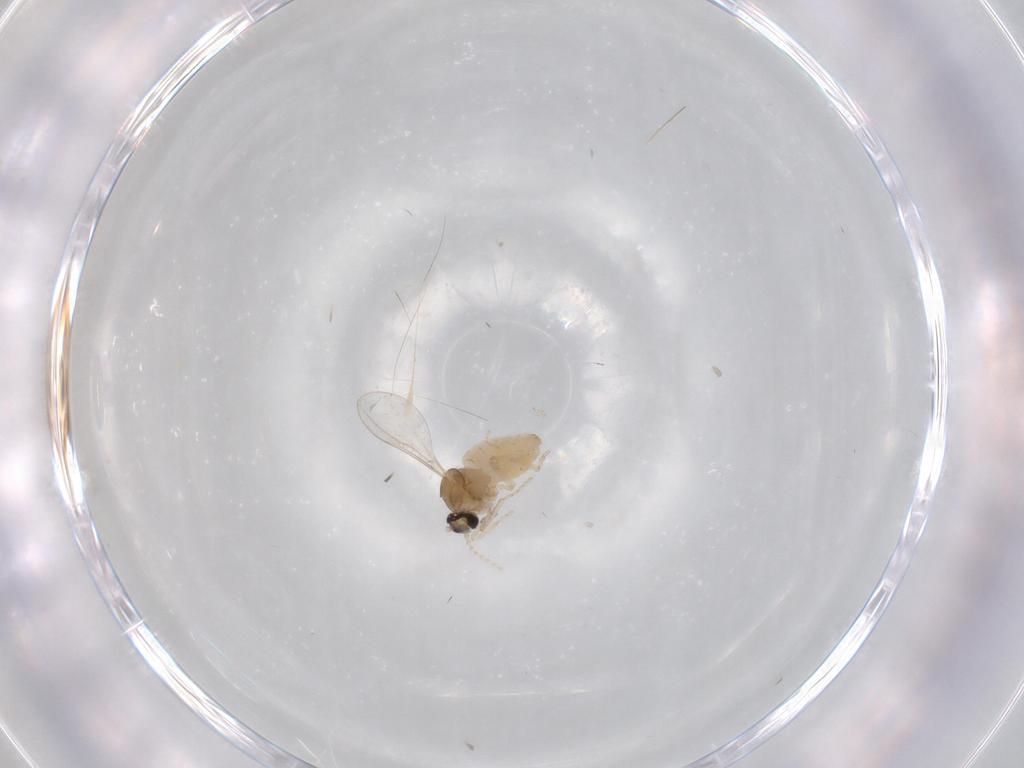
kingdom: Animalia
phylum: Arthropoda
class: Insecta
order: Diptera
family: Cecidomyiidae
